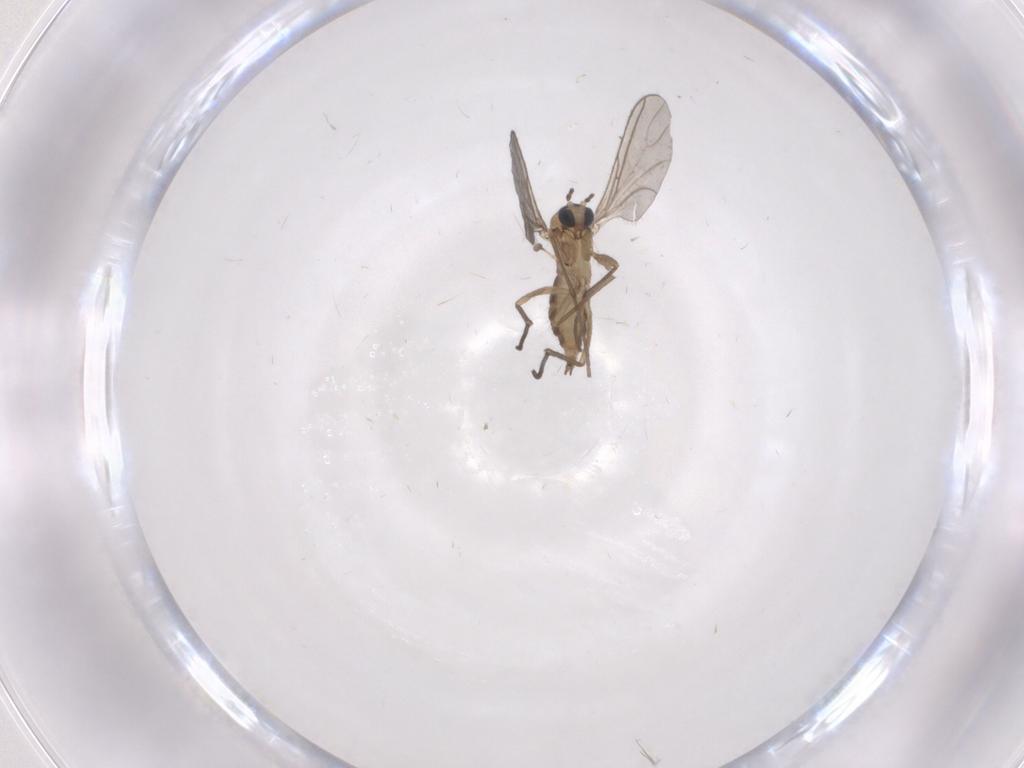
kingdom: Animalia
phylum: Arthropoda
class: Insecta
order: Diptera
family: Sciaridae
